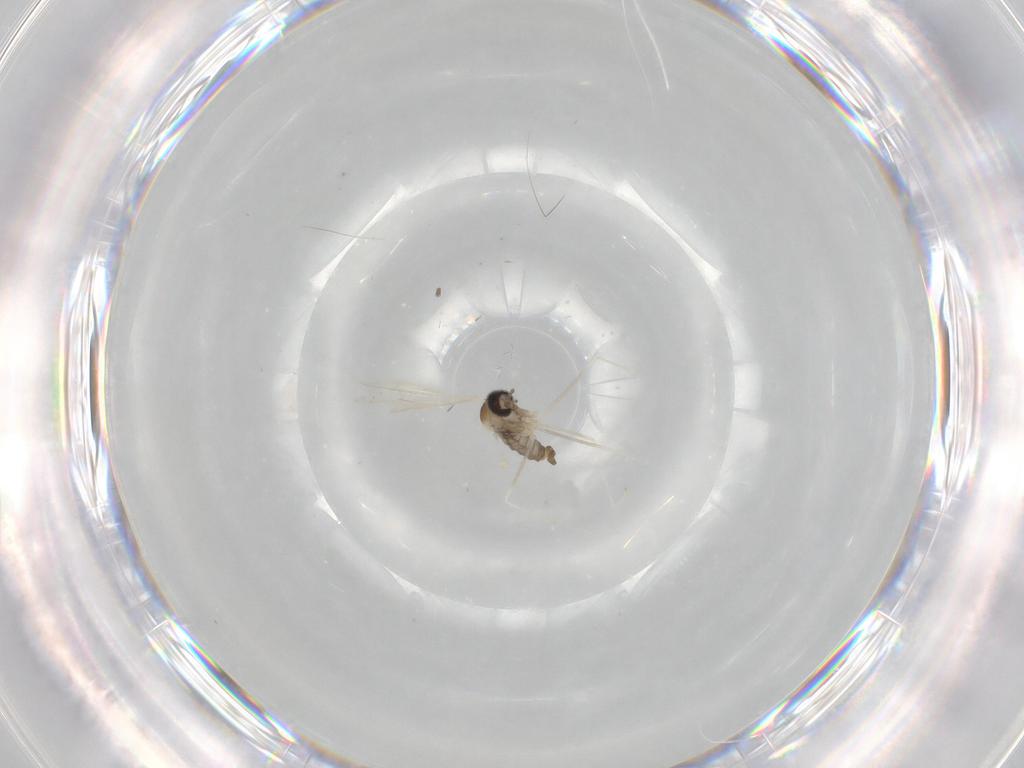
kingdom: Animalia
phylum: Arthropoda
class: Insecta
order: Diptera
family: Cecidomyiidae
